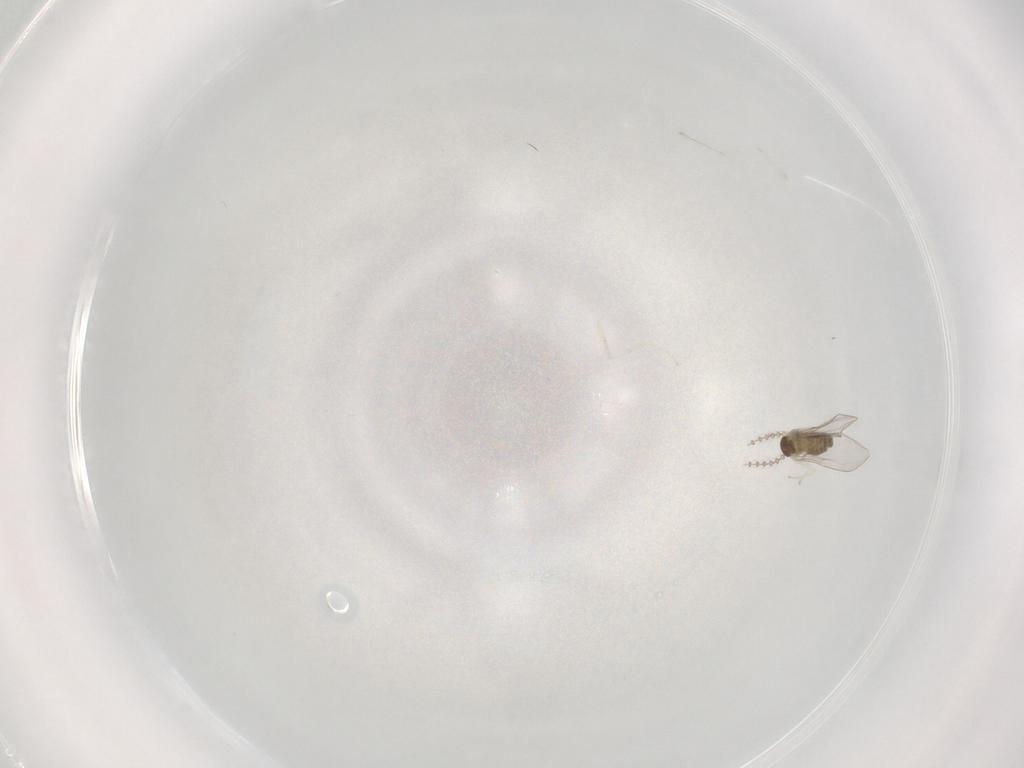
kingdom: Animalia
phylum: Arthropoda
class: Insecta
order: Diptera
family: Cecidomyiidae
